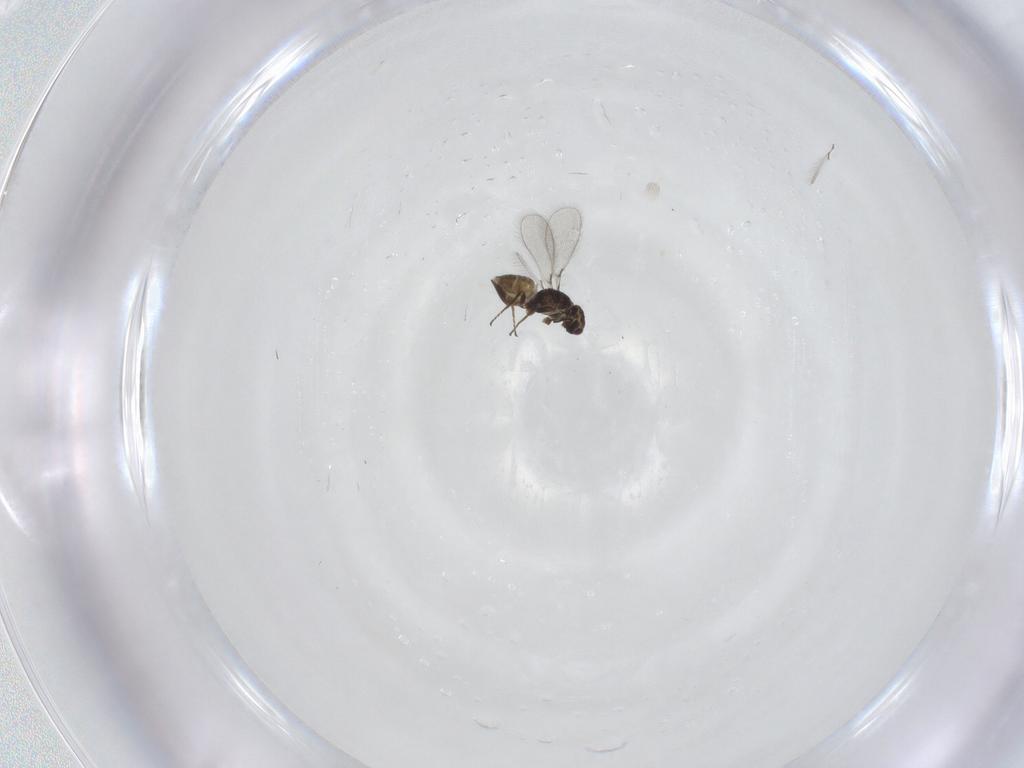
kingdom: Animalia
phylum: Arthropoda
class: Insecta
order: Hymenoptera
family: Mymaridae
